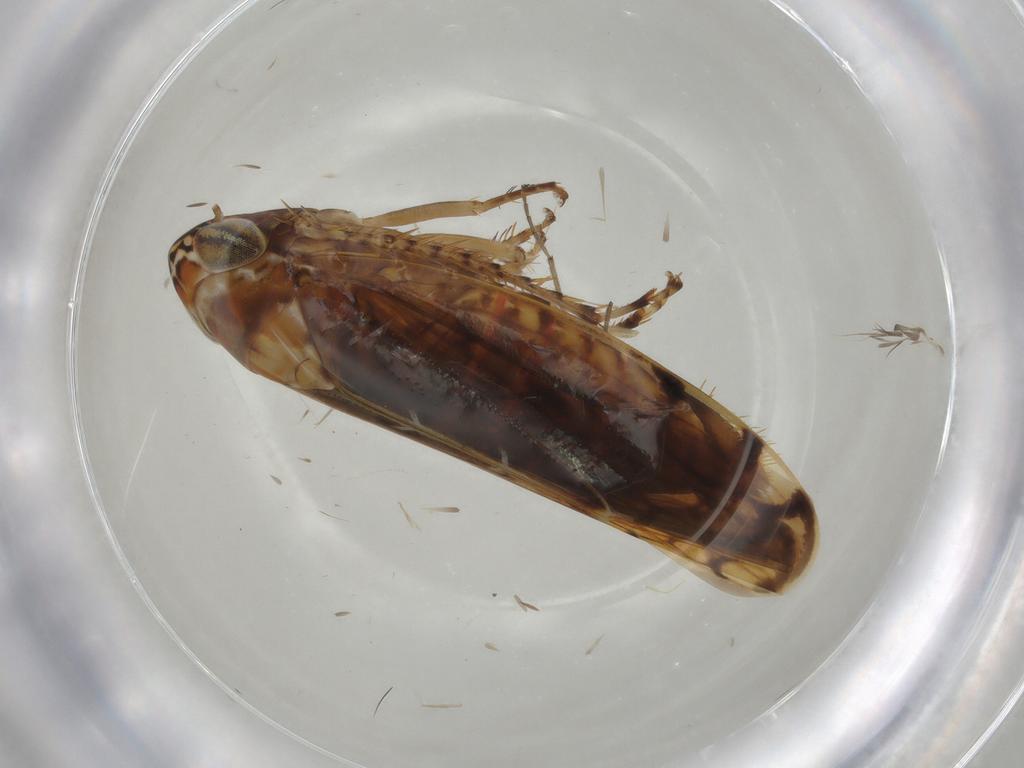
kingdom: Animalia
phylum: Arthropoda
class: Insecta
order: Hemiptera
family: Cicadellidae
